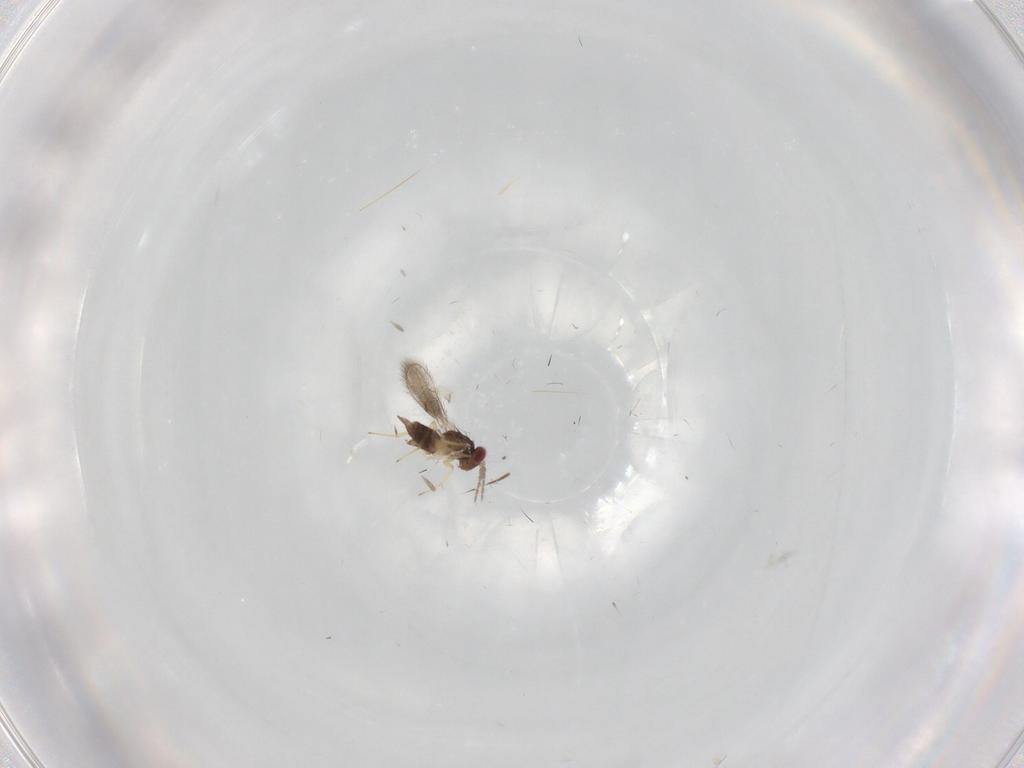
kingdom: Animalia
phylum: Arthropoda
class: Insecta
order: Hymenoptera
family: Eulophidae
